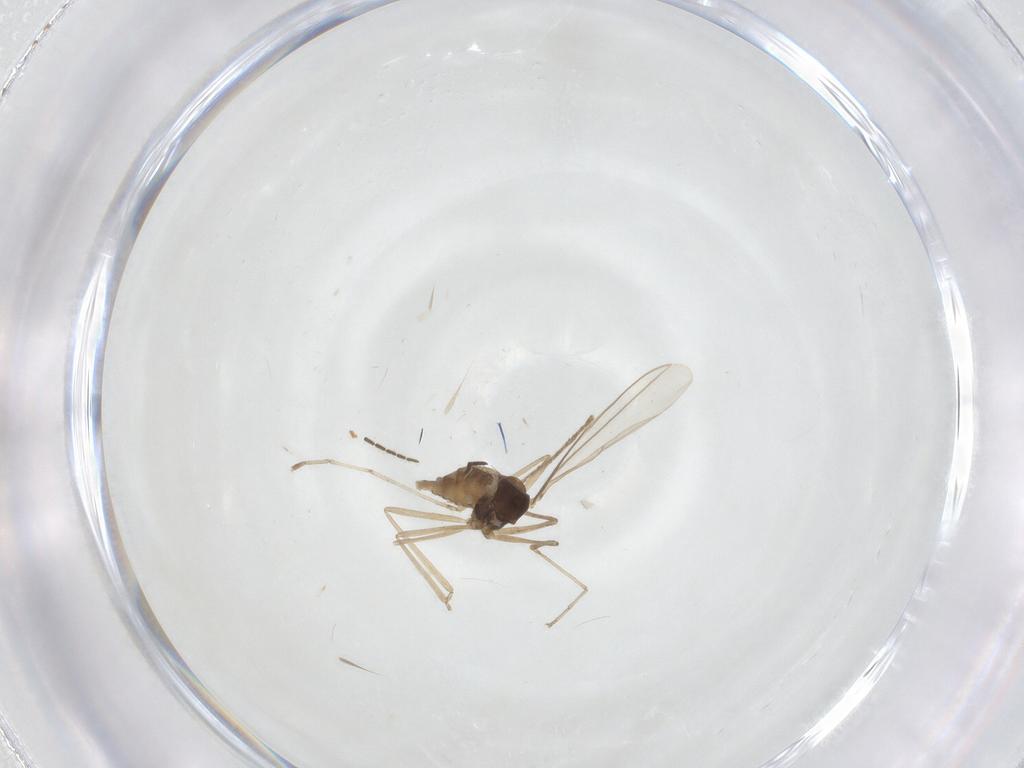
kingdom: Animalia
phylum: Arthropoda
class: Insecta
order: Diptera
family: Cecidomyiidae
